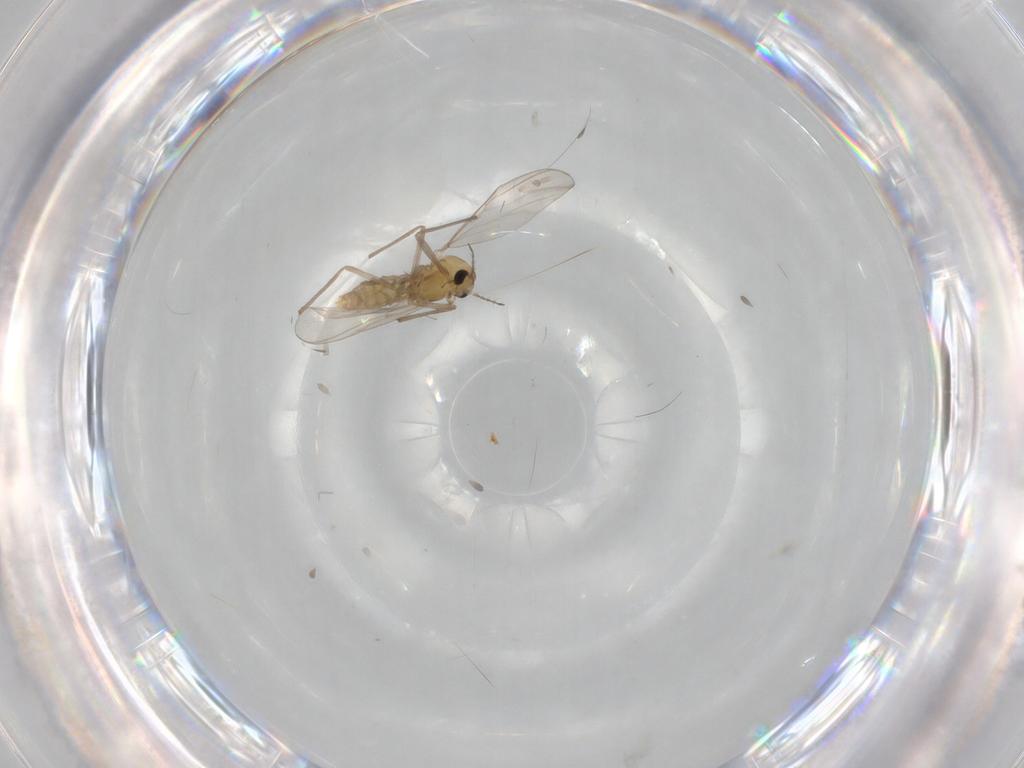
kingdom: Animalia
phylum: Arthropoda
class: Insecta
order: Diptera
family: Chironomidae
